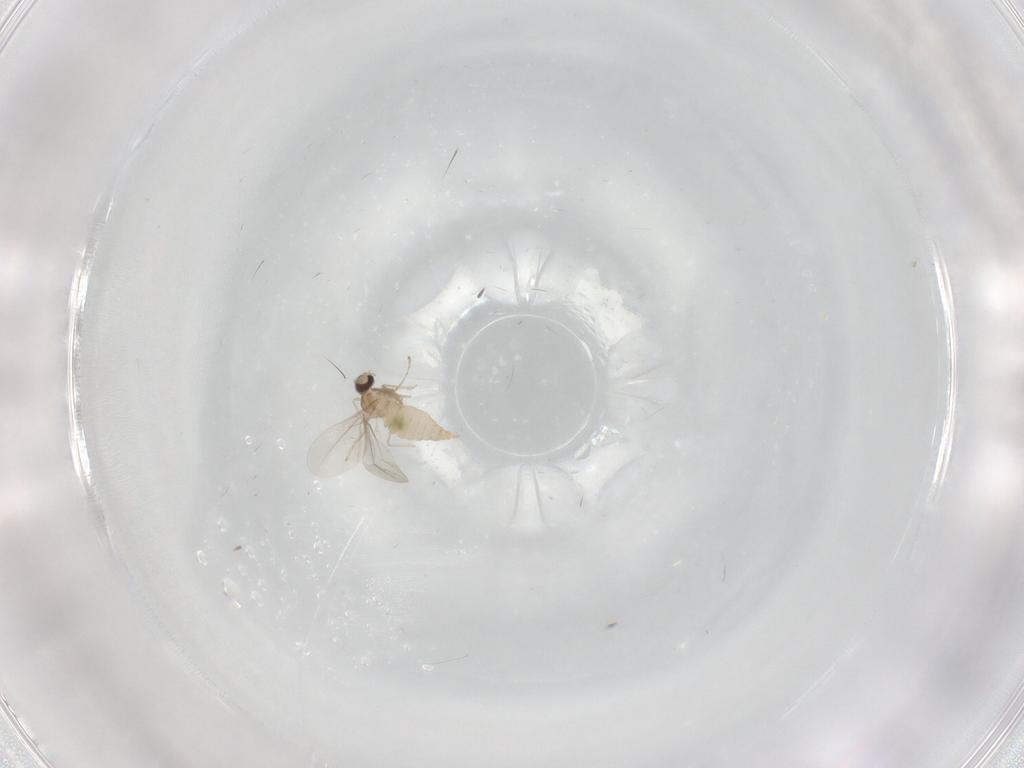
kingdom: Animalia
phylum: Arthropoda
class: Insecta
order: Diptera
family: Cecidomyiidae
